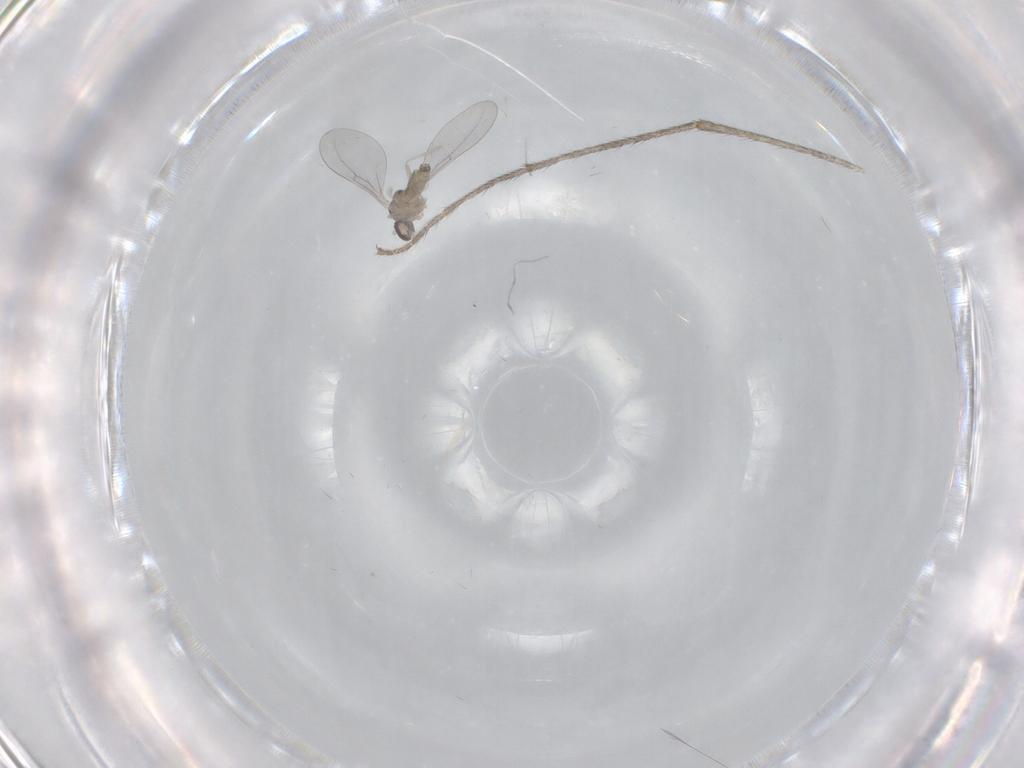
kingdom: Animalia
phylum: Arthropoda
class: Insecta
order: Diptera
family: Cecidomyiidae
